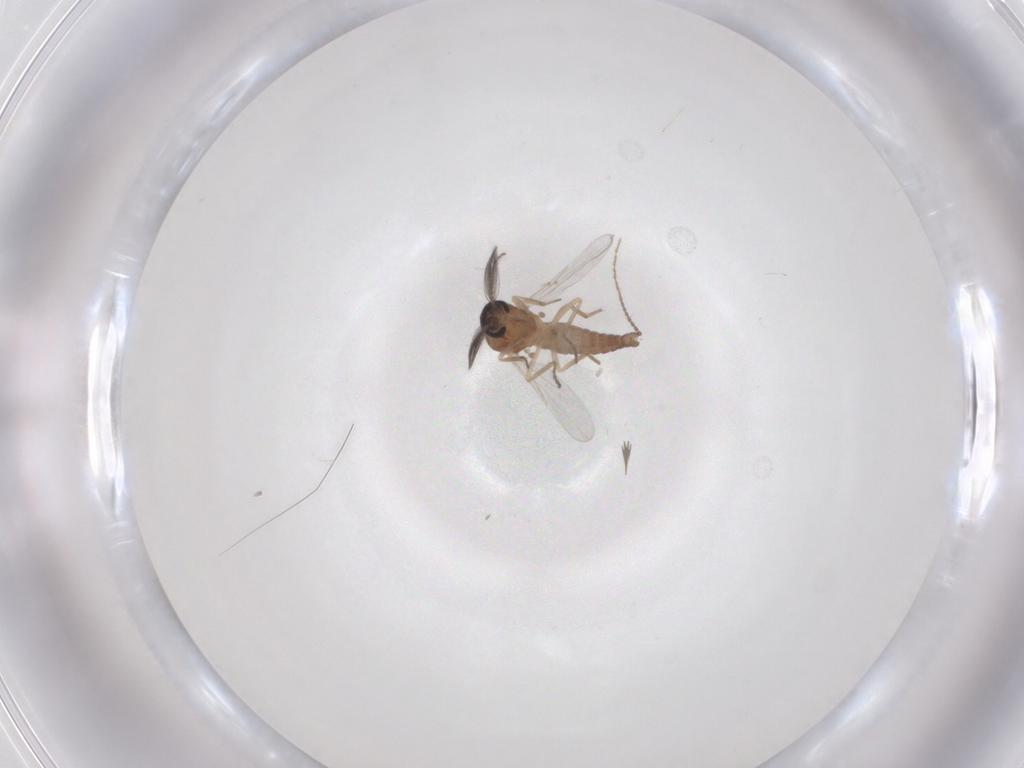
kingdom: Animalia
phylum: Arthropoda
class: Insecta
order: Diptera
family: Ceratopogonidae
